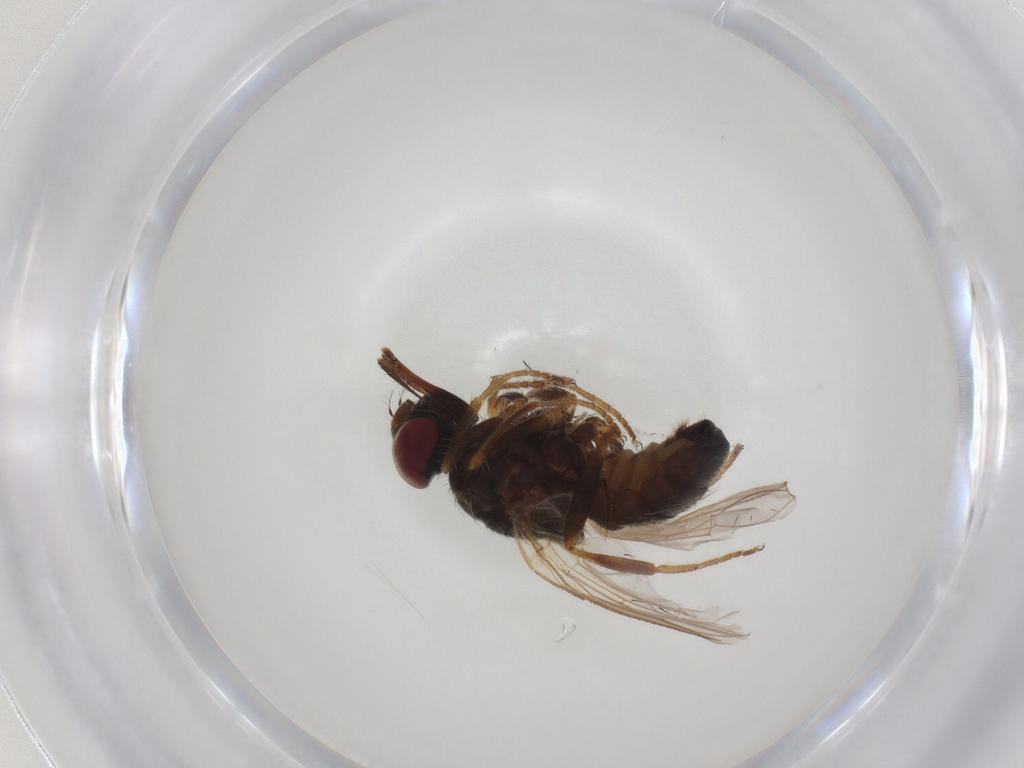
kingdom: Animalia
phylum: Arthropoda
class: Insecta
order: Diptera
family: Muscidae
